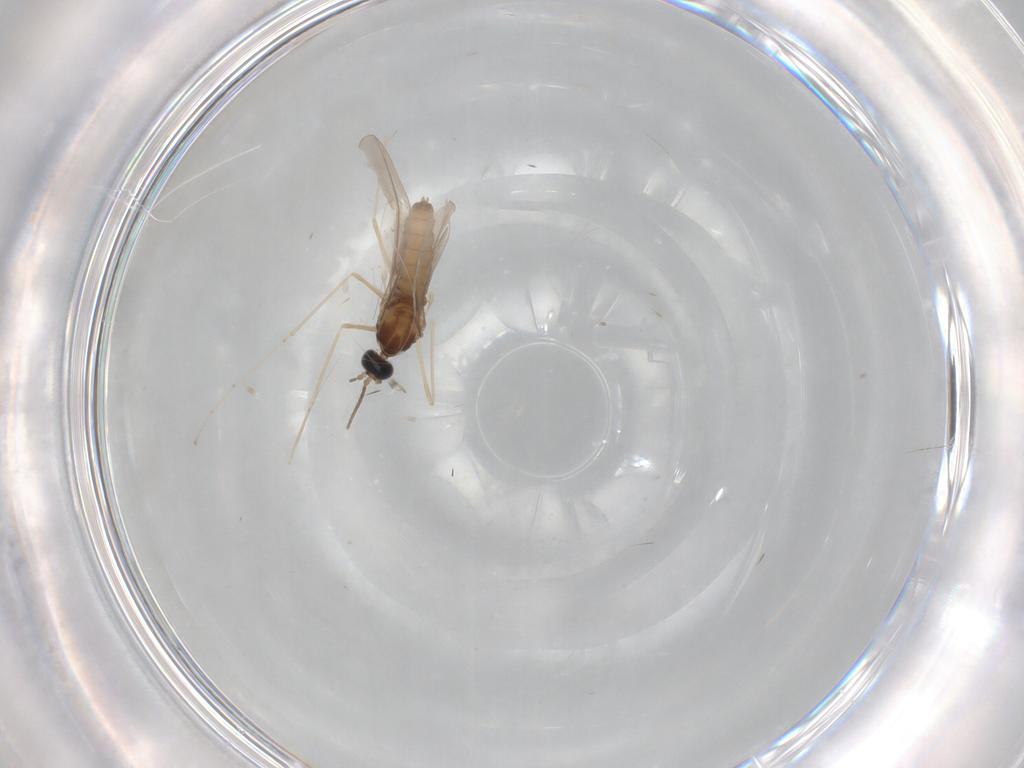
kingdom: Animalia
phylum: Arthropoda
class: Insecta
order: Diptera
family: Cecidomyiidae
